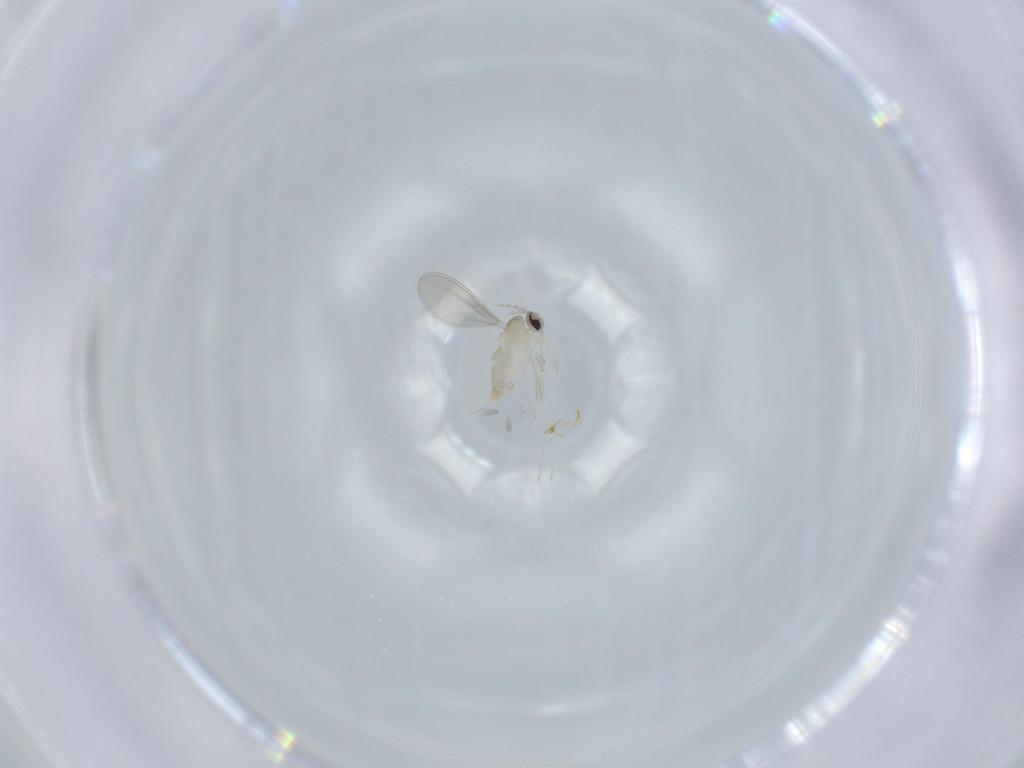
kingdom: Animalia
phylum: Arthropoda
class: Insecta
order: Diptera
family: Cecidomyiidae
